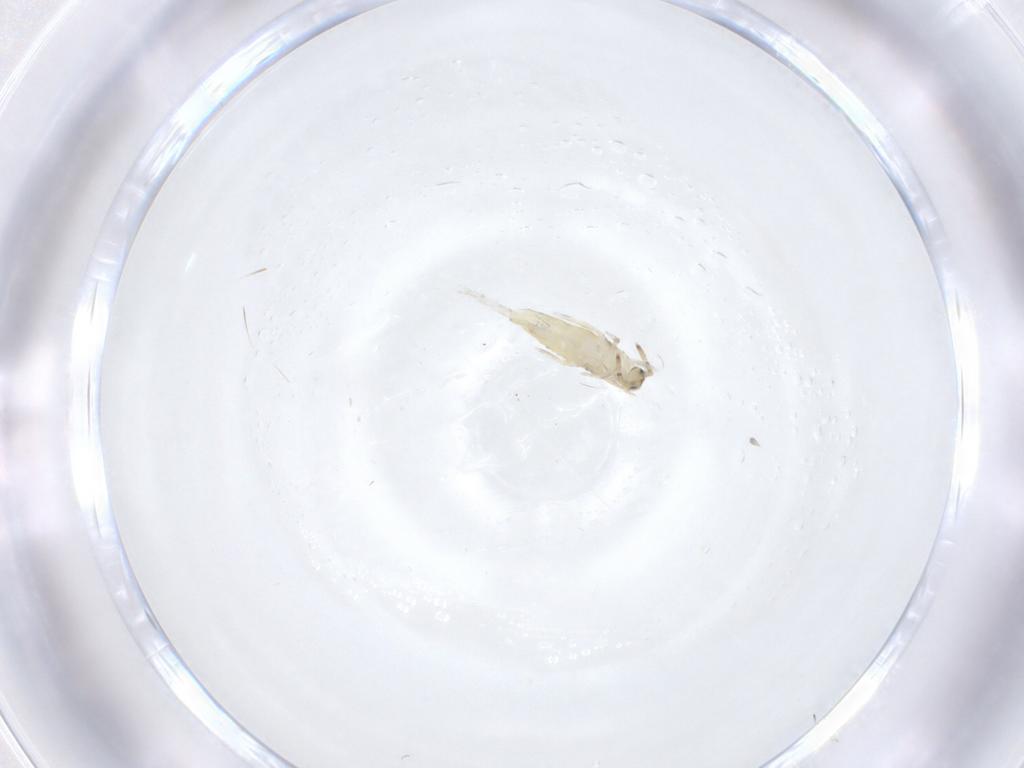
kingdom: Animalia
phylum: Arthropoda
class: Collembola
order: Entomobryomorpha
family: Entomobryidae
